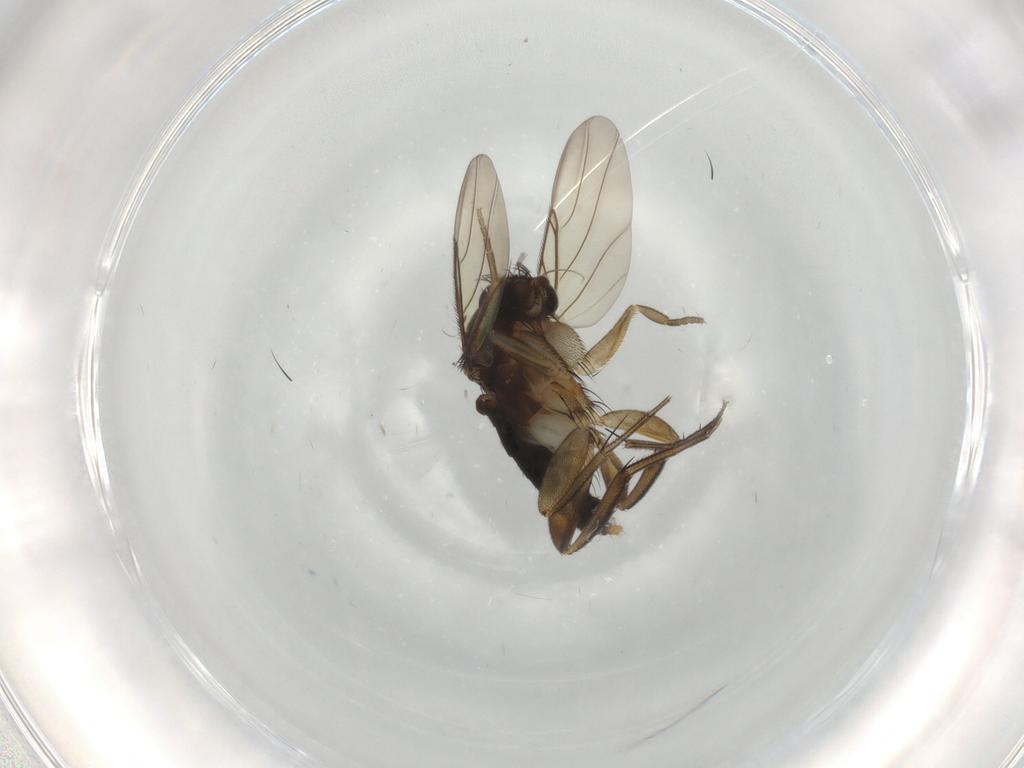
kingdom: Animalia
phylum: Arthropoda
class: Insecta
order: Diptera
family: Phoridae
